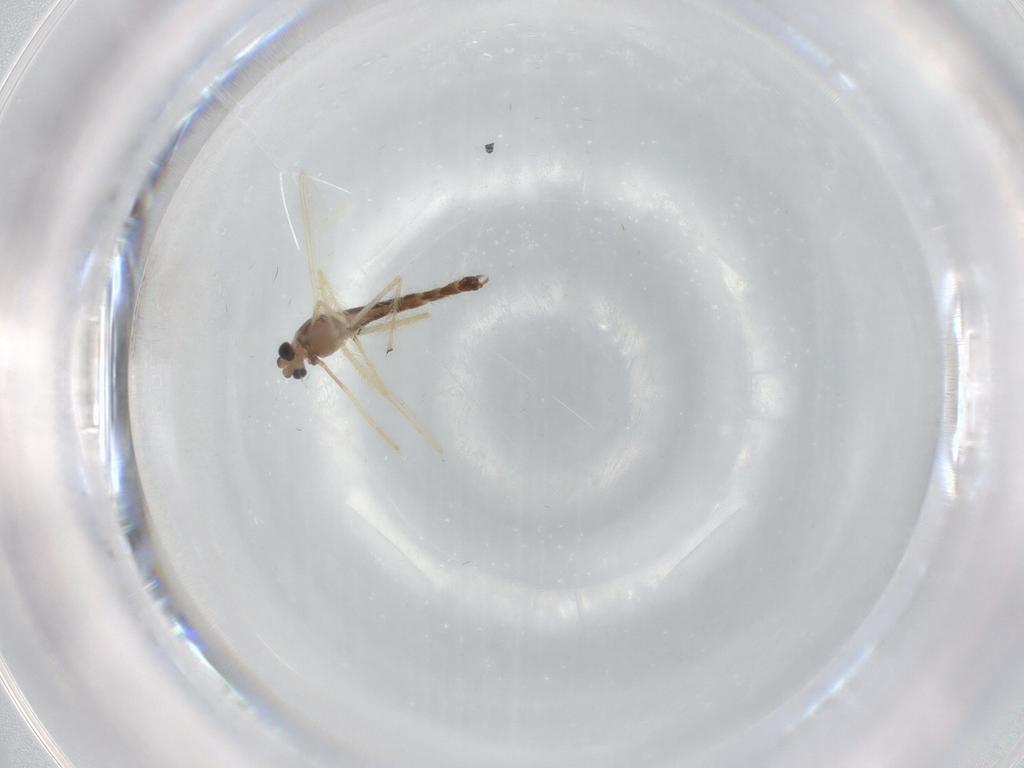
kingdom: Animalia
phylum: Arthropoda
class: Insecta
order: Diptera
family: Chironomidae
